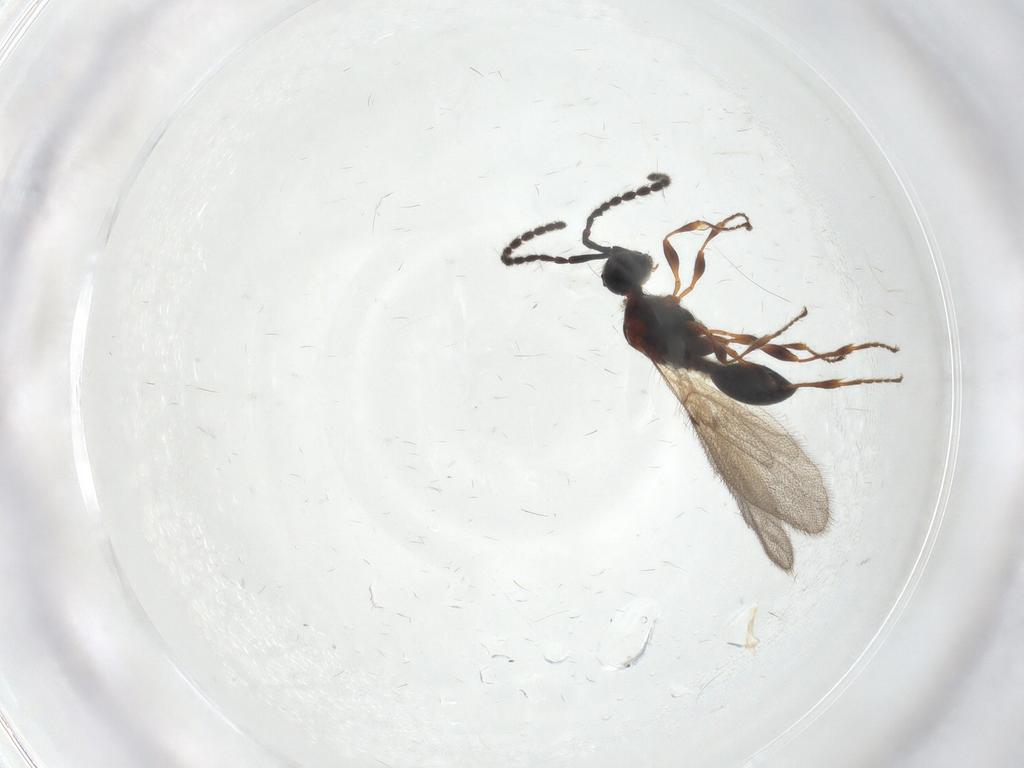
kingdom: Animalia
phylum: Arthropoda
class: Insecta
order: Hymenoptera
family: Diapriidae
